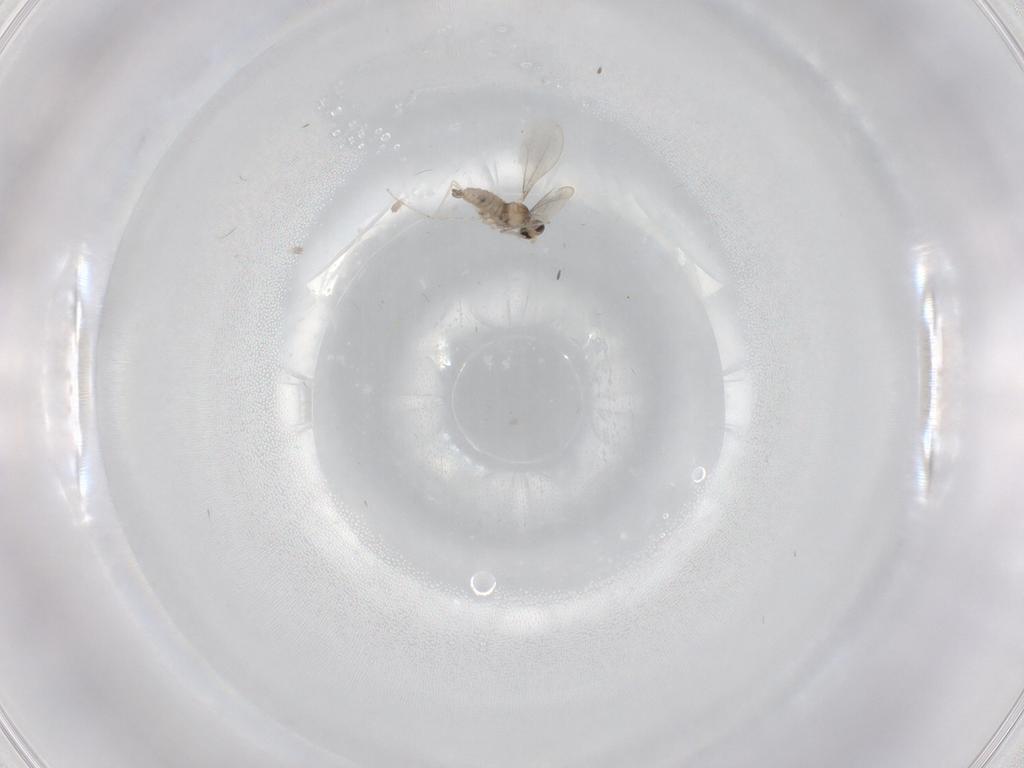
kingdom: Animalia
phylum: Arthropoda
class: Insecta
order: Diptera
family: Cecidomyiidae
